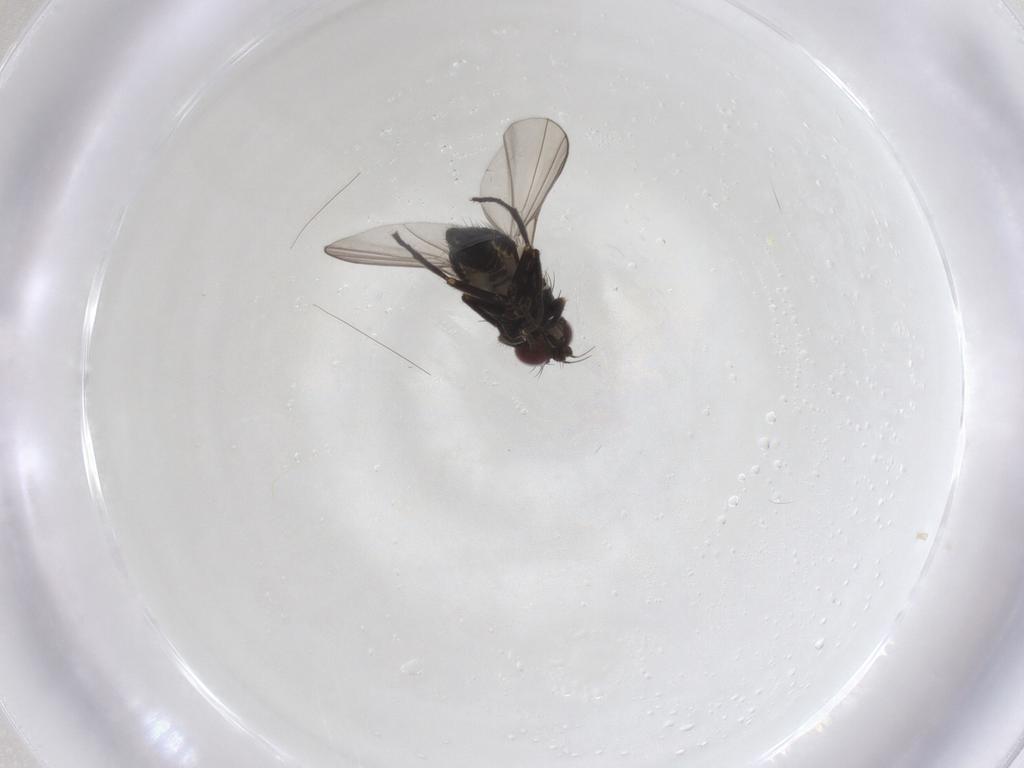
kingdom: Animalia
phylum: Arthropoda
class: Insecta
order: Diptera
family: Agromyzidae
